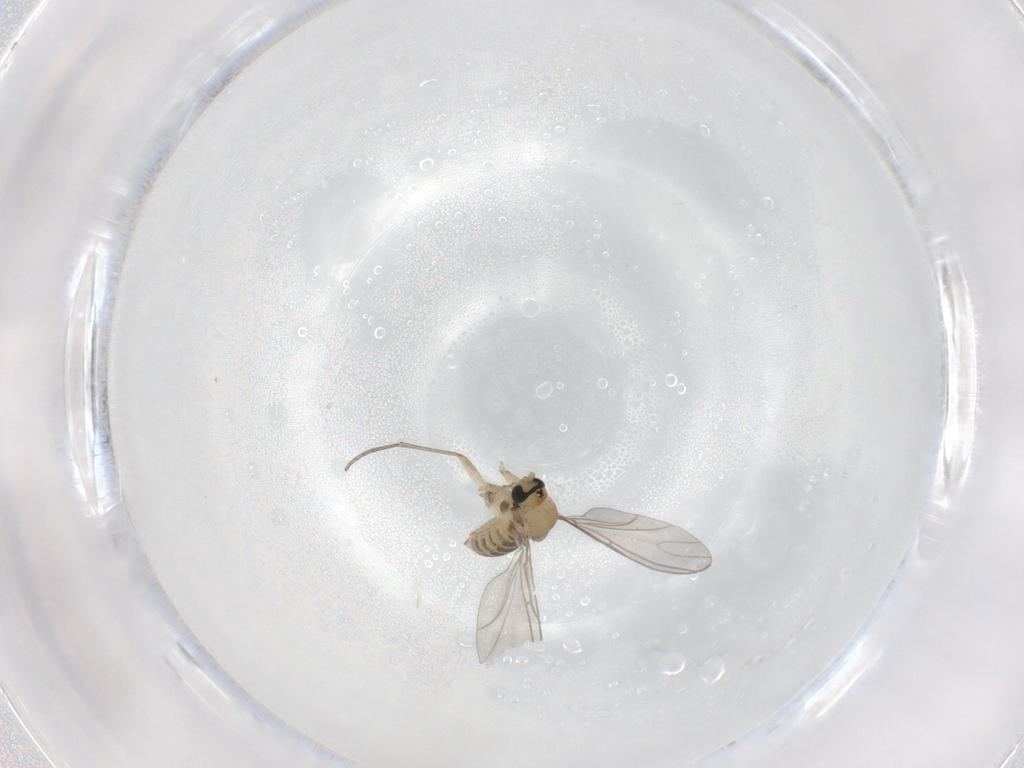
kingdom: Animalia
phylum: Arthropoda
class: Insecta
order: Diptera
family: Sciaridae
